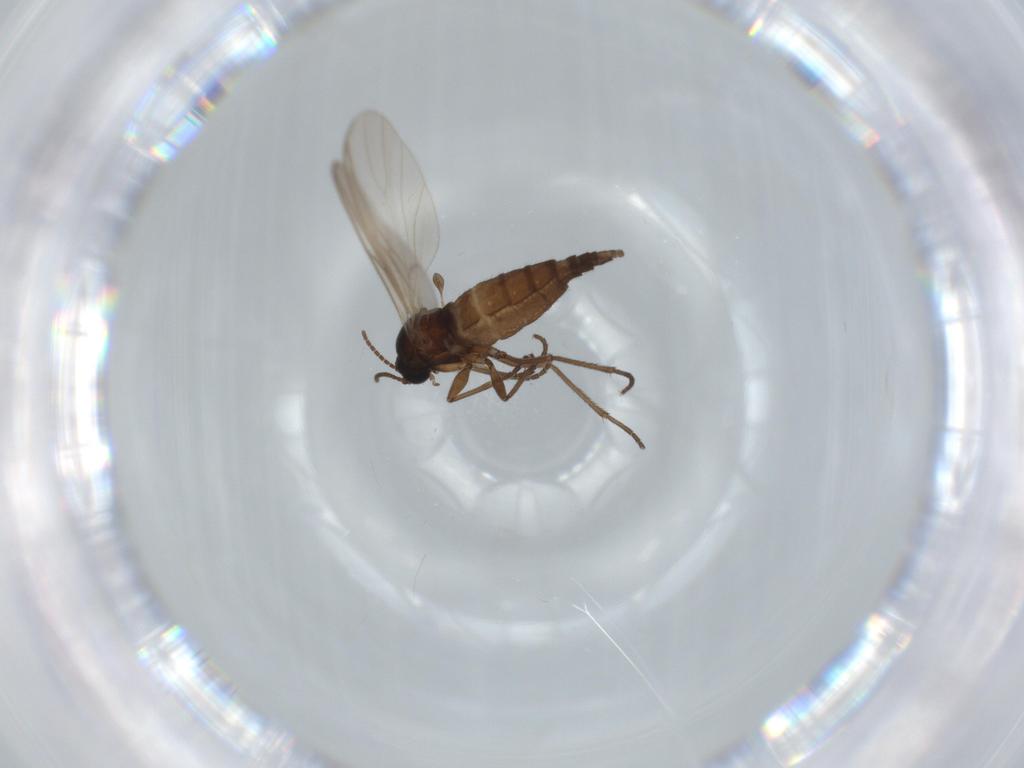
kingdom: Animalia
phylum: Arthropoda
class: Insecta
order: Diptera
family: Sciaridae
